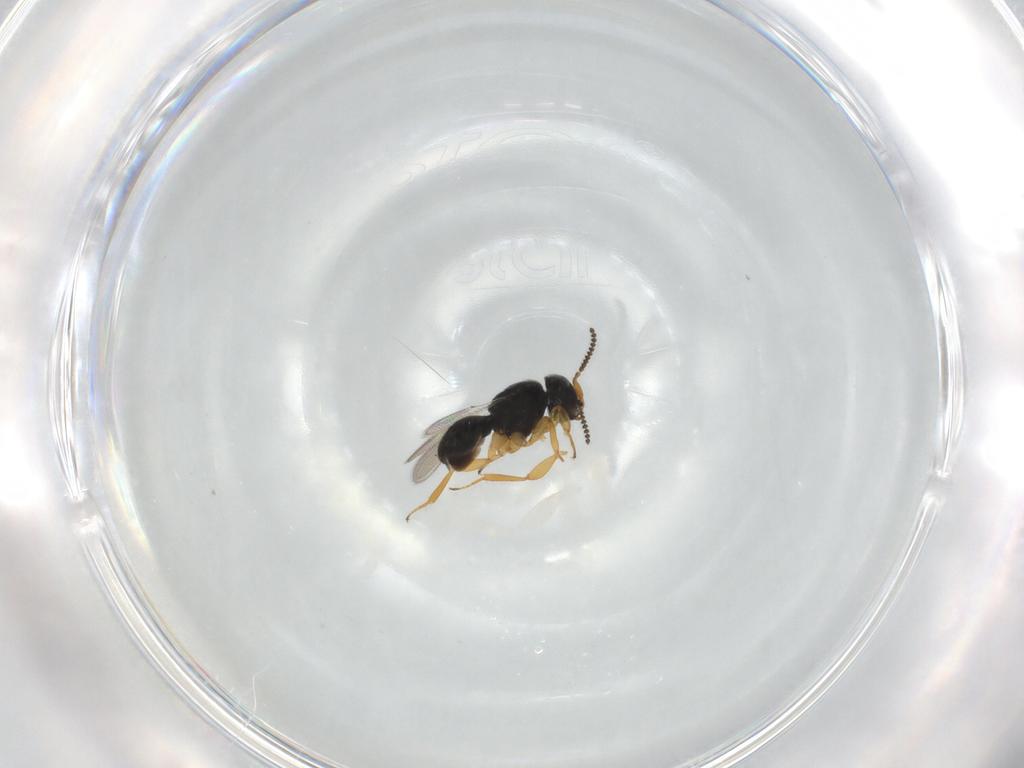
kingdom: Animalia
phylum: Arthropoda
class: Insecta
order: Hymenoptera
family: Scelionidae
